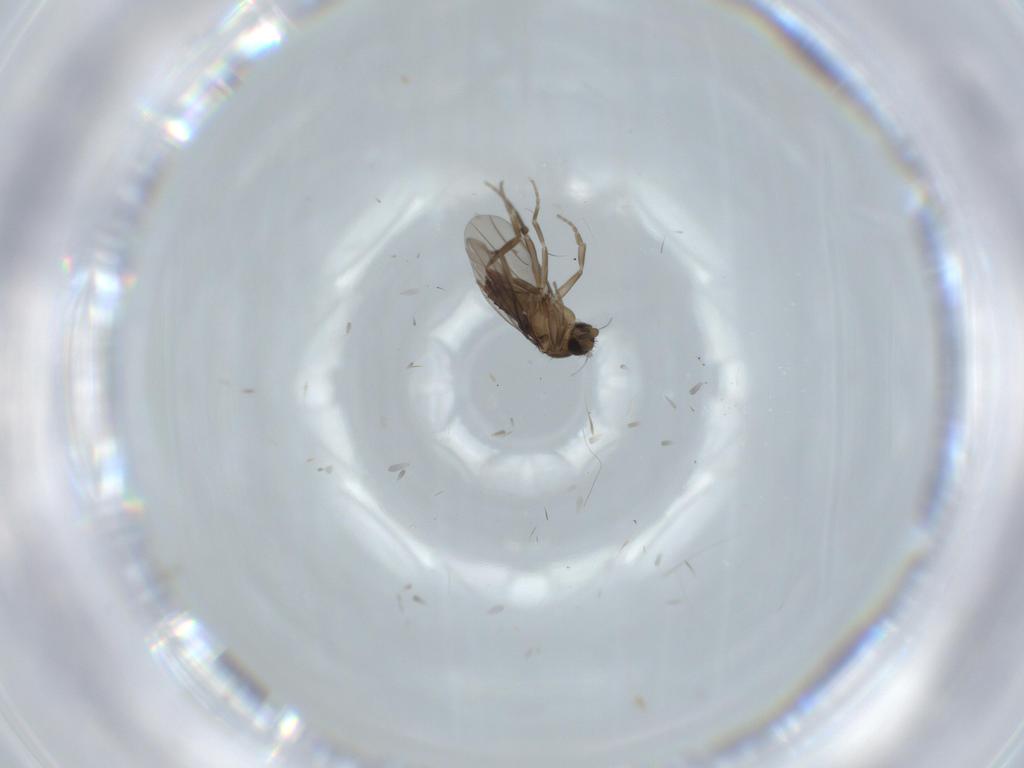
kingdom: Animalia
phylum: Arthropoda
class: Insecta
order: Diptera
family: Sciaridae
